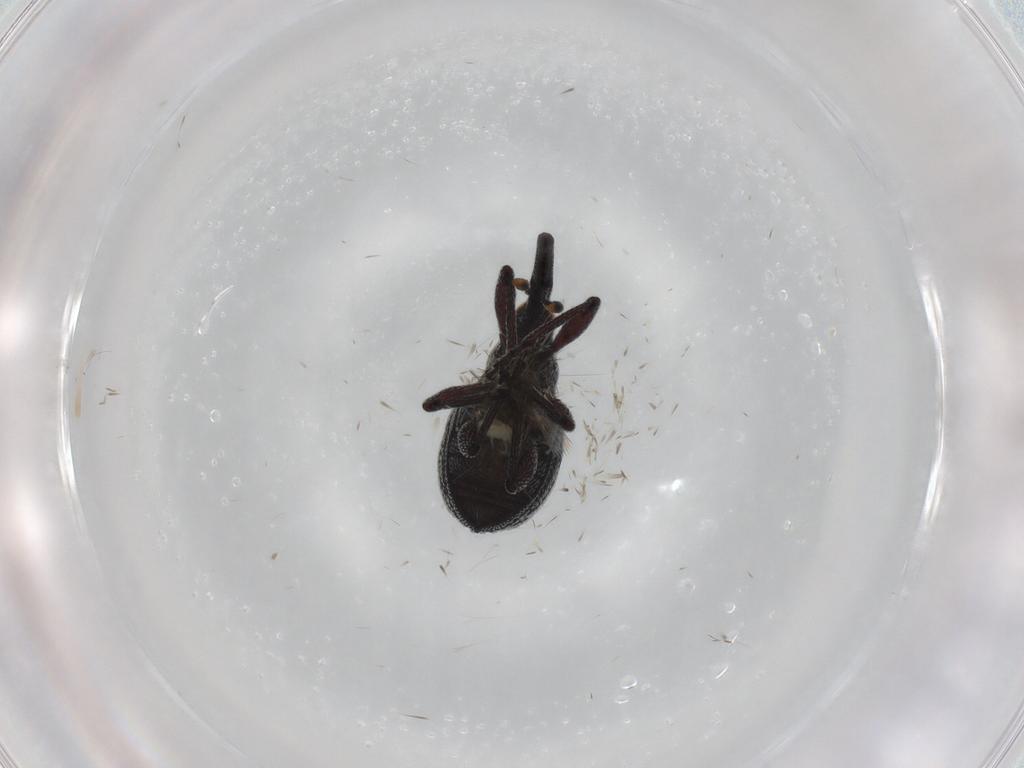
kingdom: Animalia
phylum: Arthropoda
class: Insecta
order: Coleoptera
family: Brentidae
